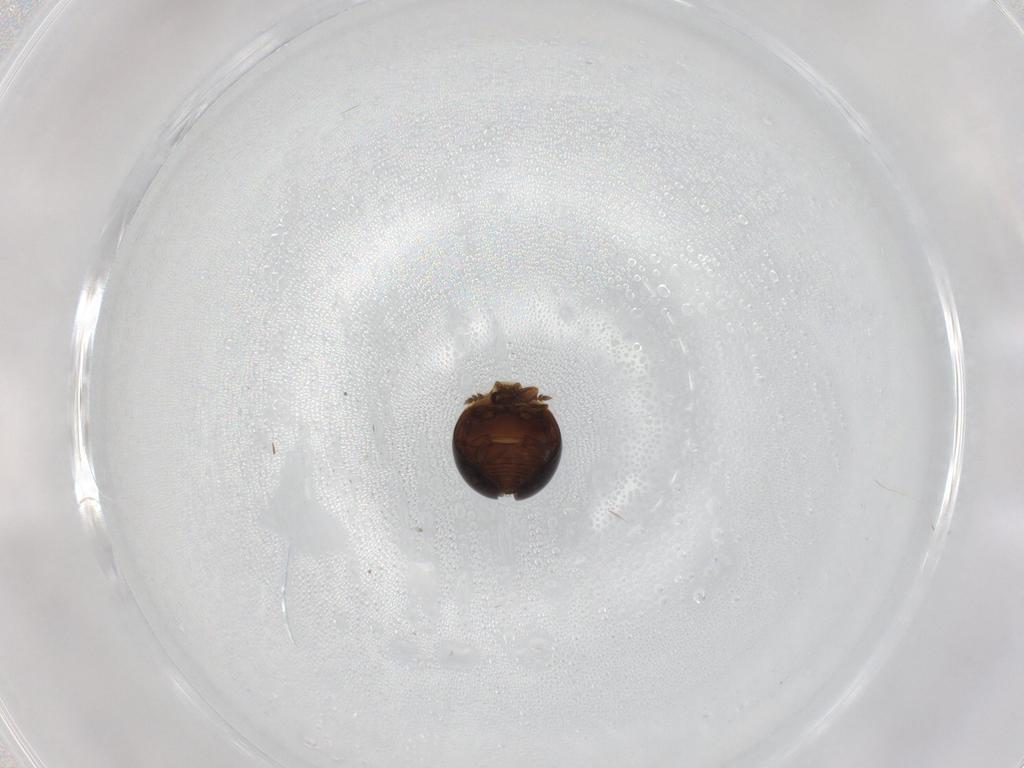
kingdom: Animalia
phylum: Arthropoda
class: Insecta
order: Coleoptera
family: Corylophidae
